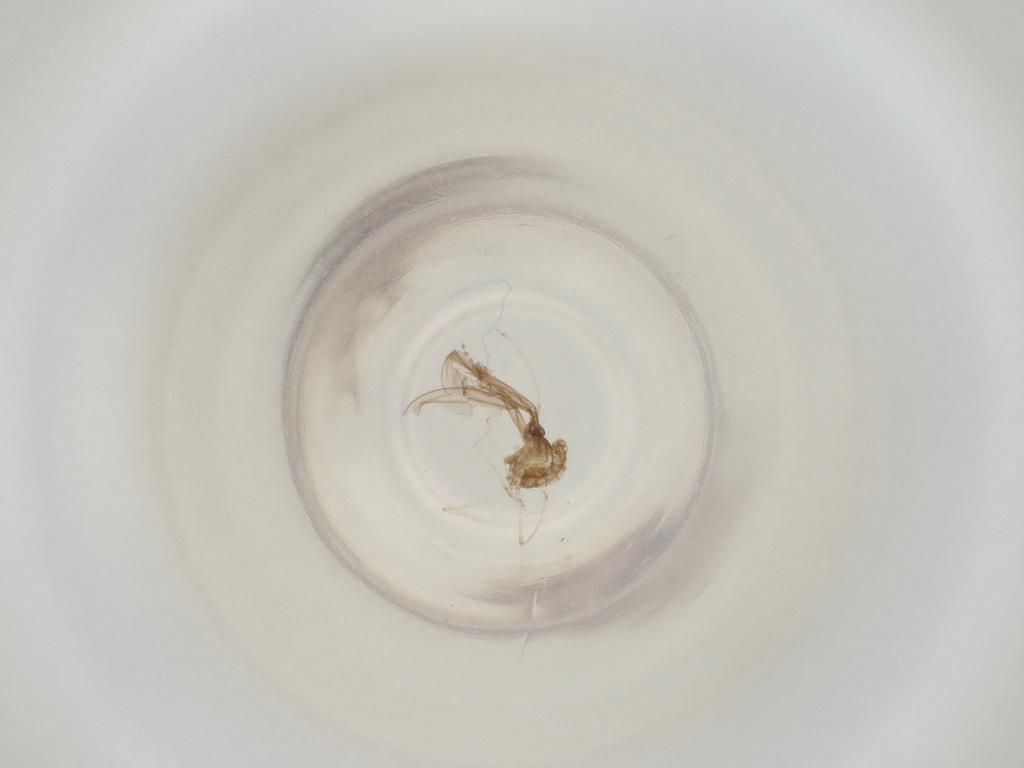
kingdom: Animalia
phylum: Arthropoda
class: Insecta
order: Diptera
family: Cecidomyiidae
